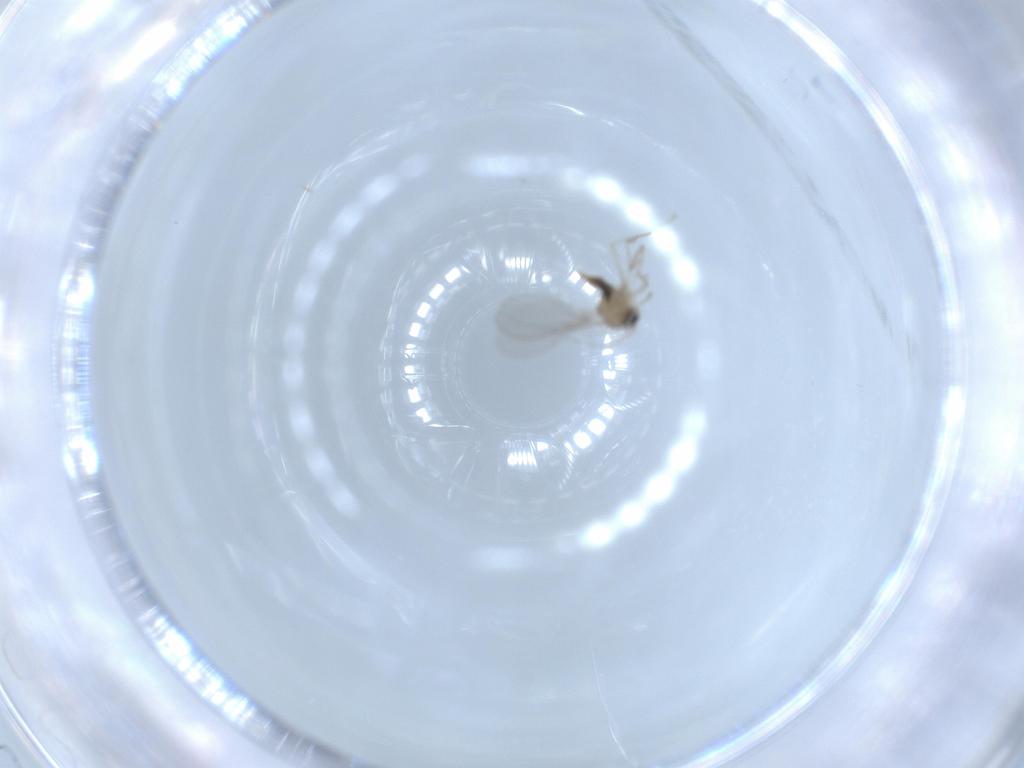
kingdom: Animalia
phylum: Arthropoda
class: Insecta
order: Diptera
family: Cecidomyiidae
